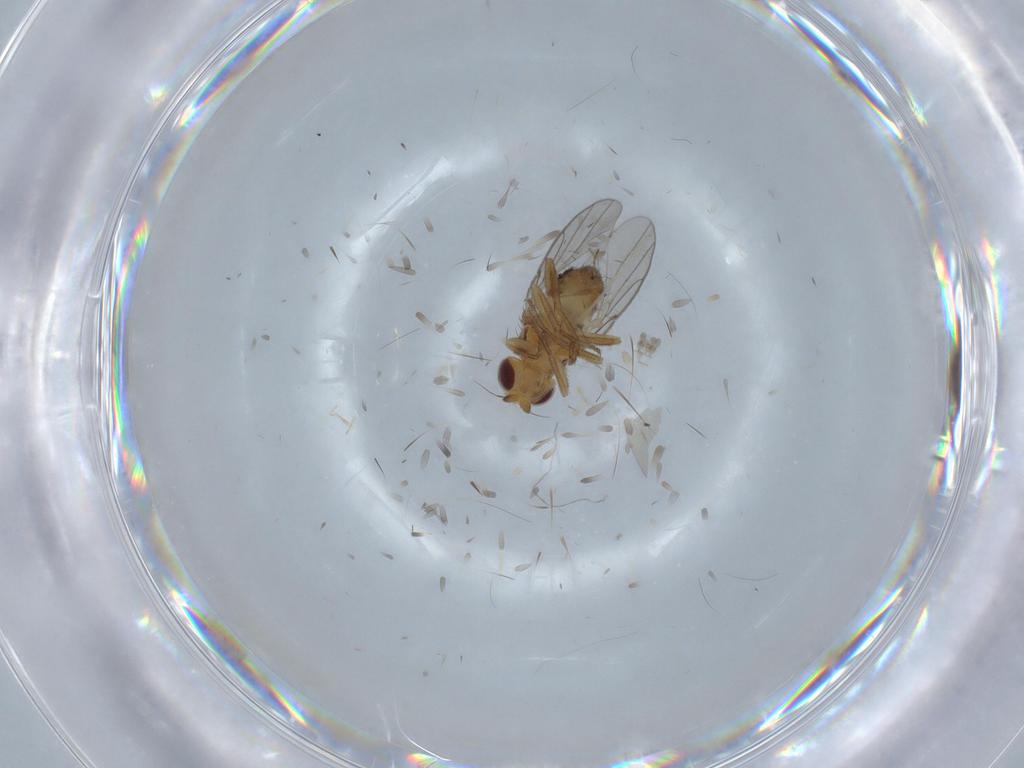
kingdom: Animalia
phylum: Arthropoda
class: Insecta
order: Diptera
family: Chloropidae
